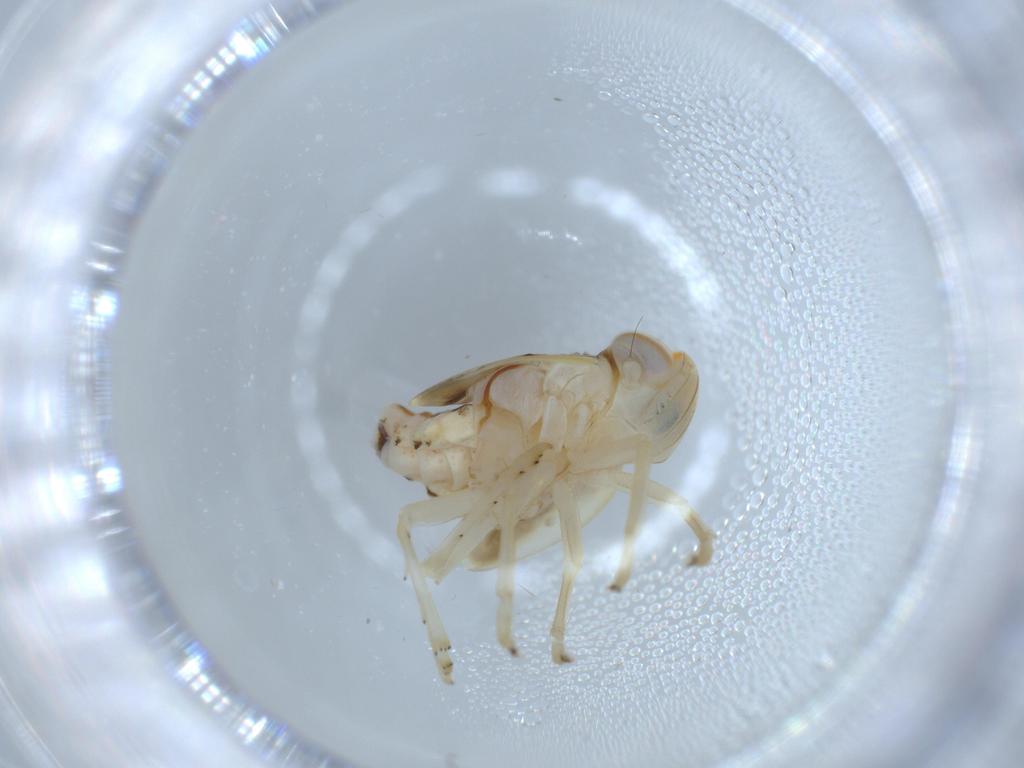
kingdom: Animalia
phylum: Arthropoda
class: Insecta
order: Hemiptera
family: Nogodinidae
